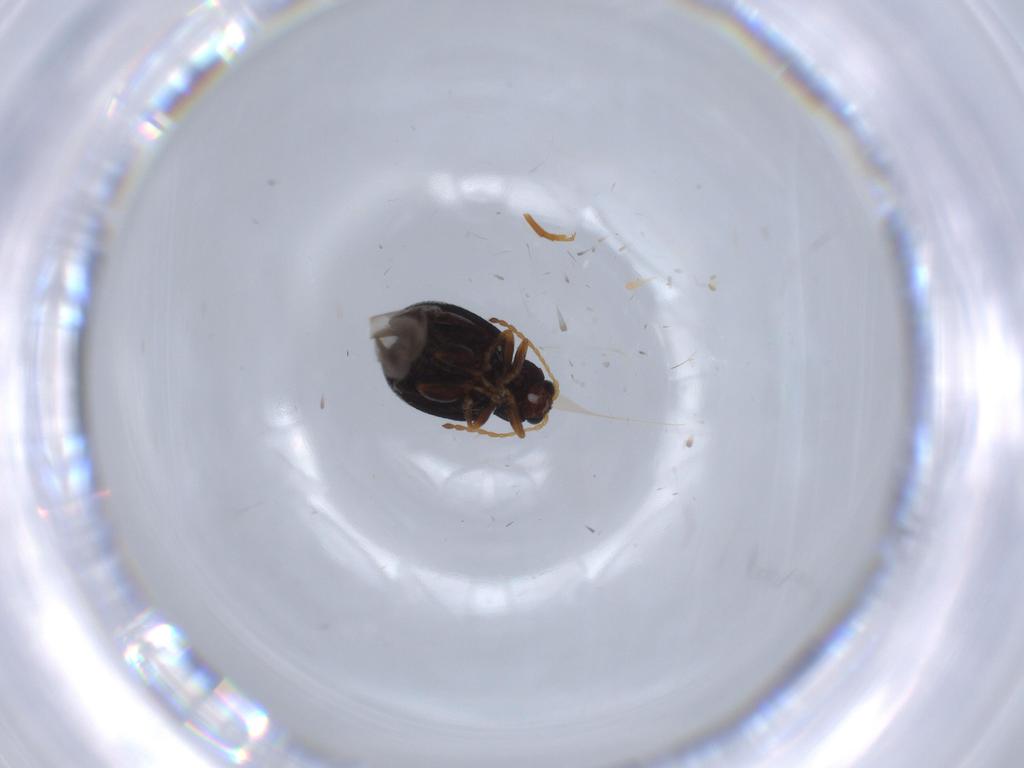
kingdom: Animalia
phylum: Arthropoda
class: Insecta
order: Coleoptera
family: Chrysomelidae
